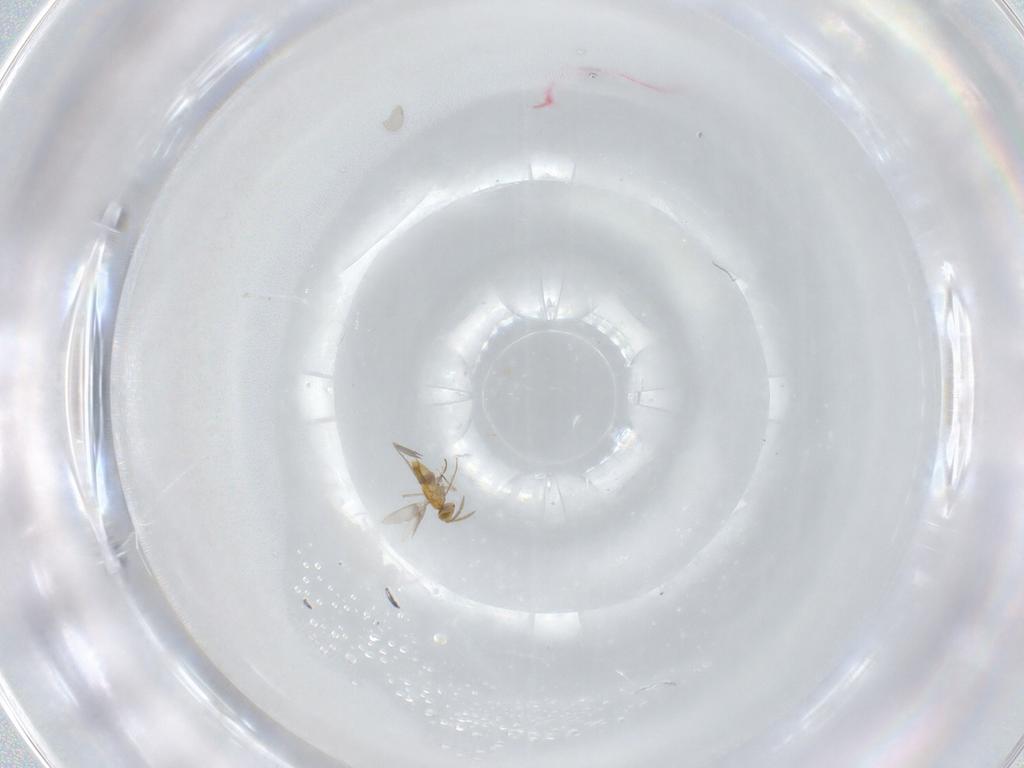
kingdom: Animalia
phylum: Arthropoda
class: Insecta
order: Hymenoptera
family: Aphelinidae
